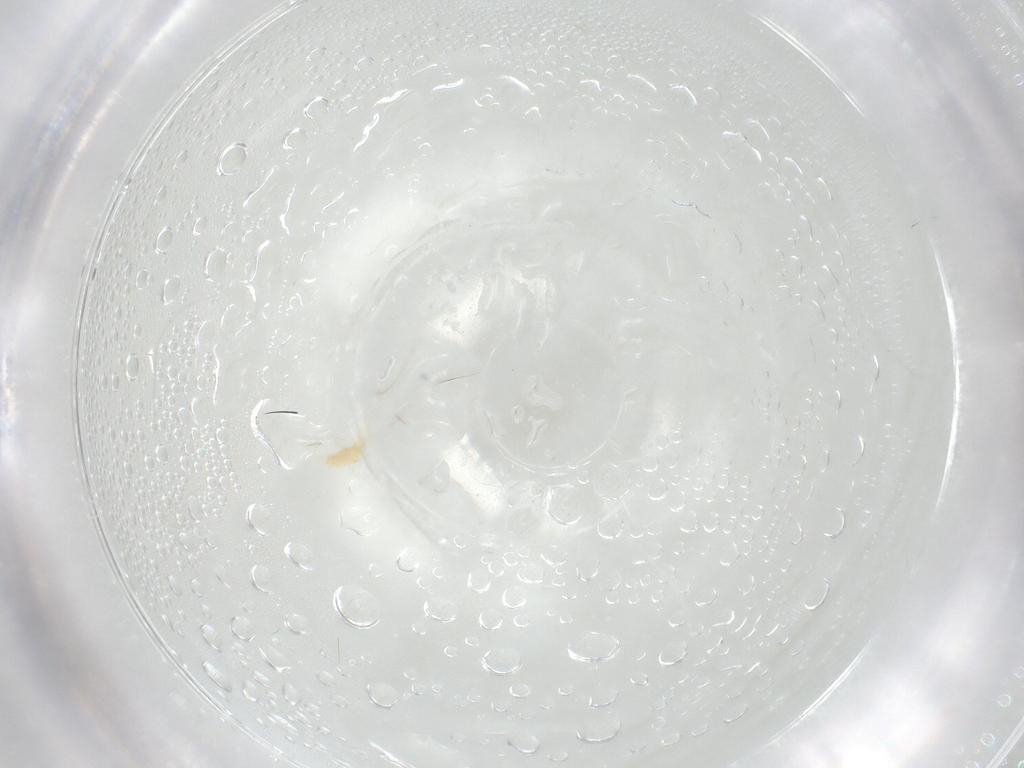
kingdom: Animalia
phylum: Arthropoda
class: Arachnida
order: Trombidiformes
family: Tetranychidae
